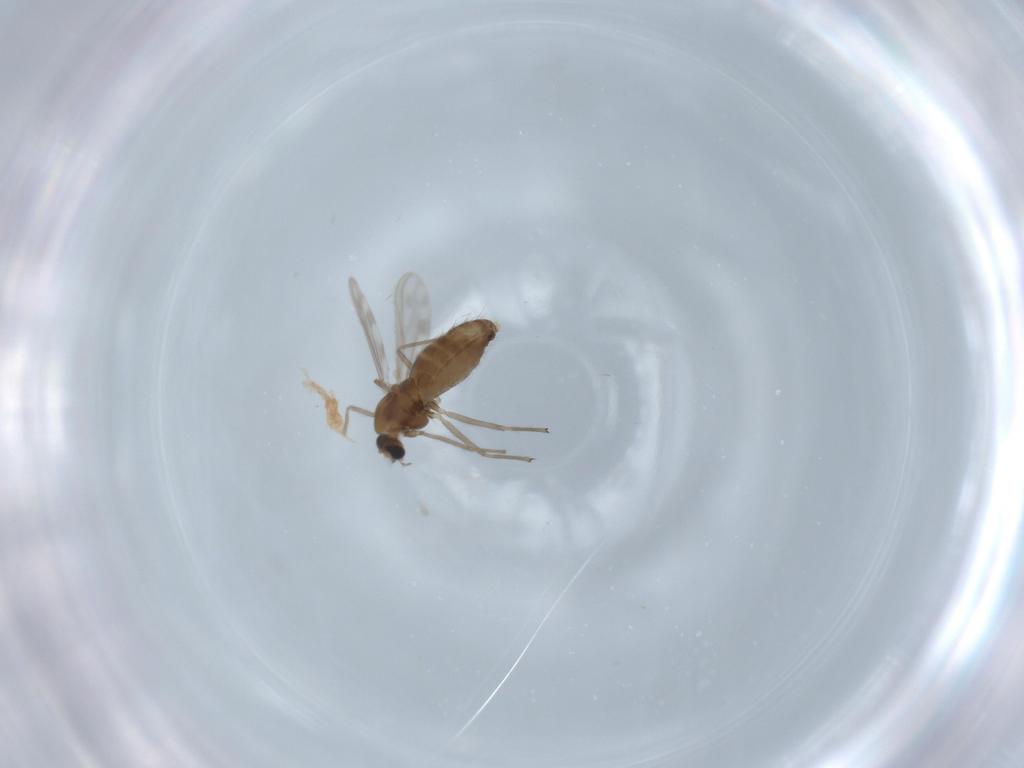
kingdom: Animalia
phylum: Arthropoda
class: Insecta
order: Diptera
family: Chironomidae
